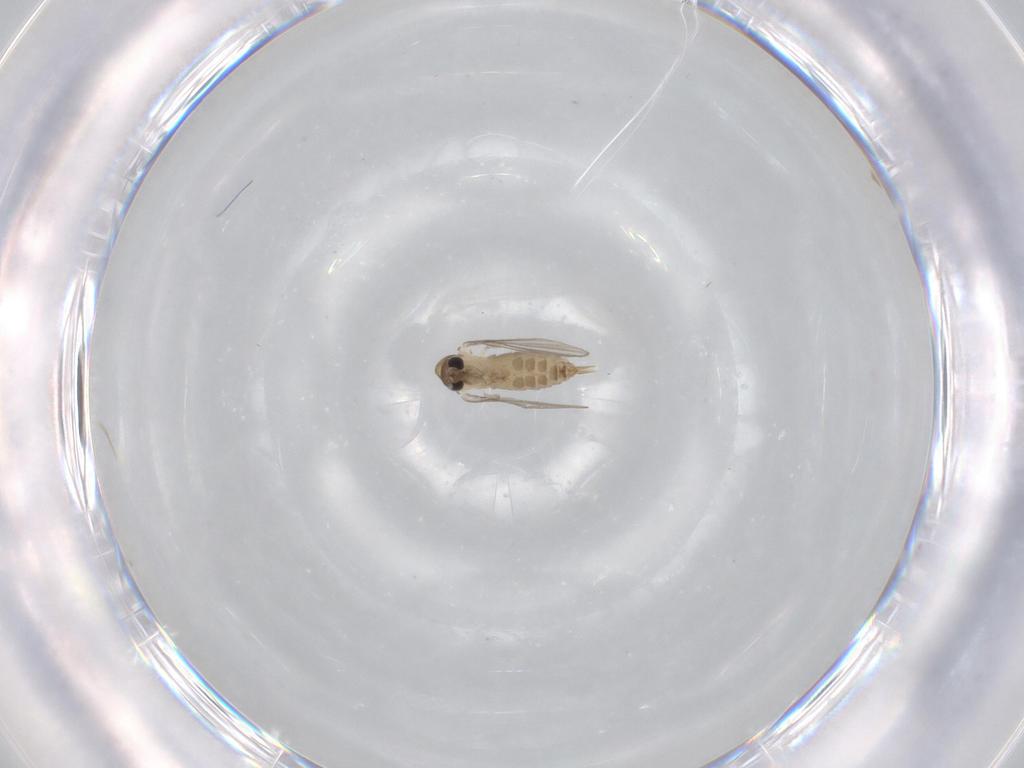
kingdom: Animalia
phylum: Arthropoda
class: Insecta
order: Diptera
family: Psychodidae
